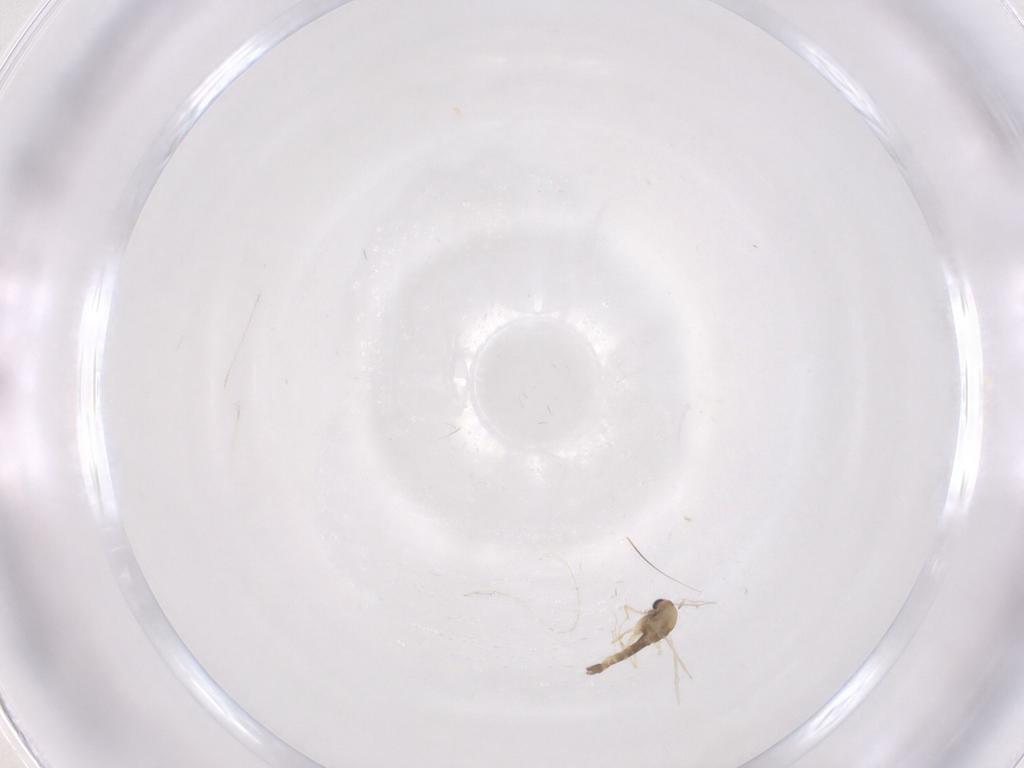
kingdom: Animalia
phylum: Arthropoda
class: Insecta
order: Diptera
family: Chironomidae
